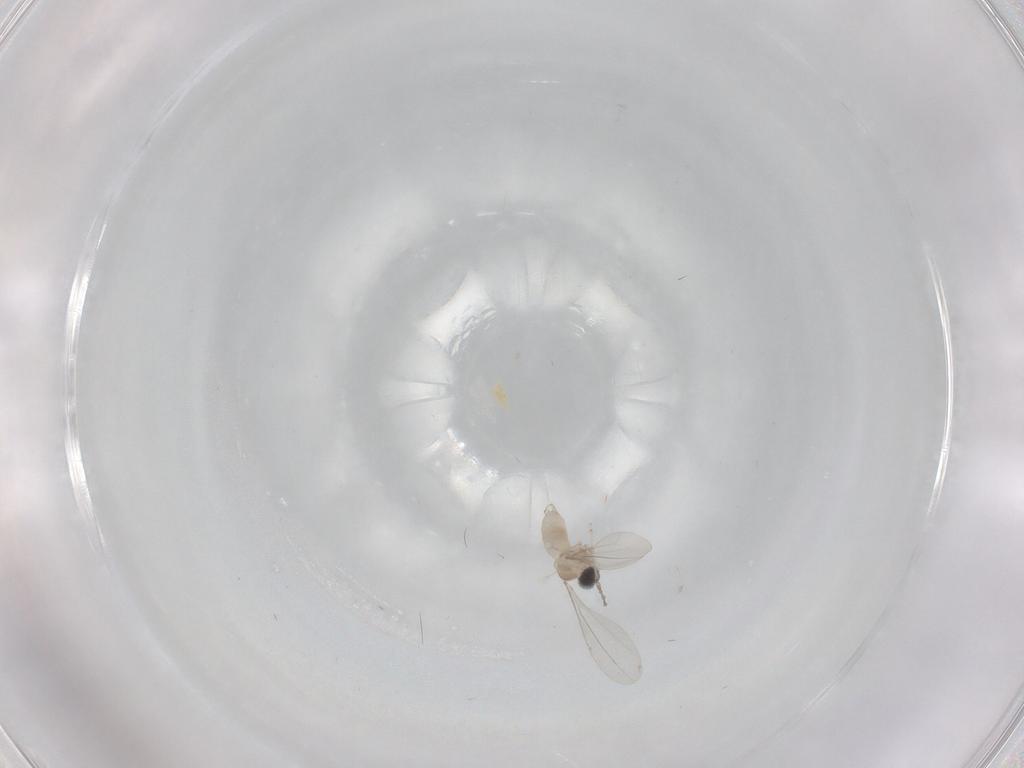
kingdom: Animalia
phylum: Arthropoda
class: Insecta
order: Diptera
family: Cecidomyiidae
